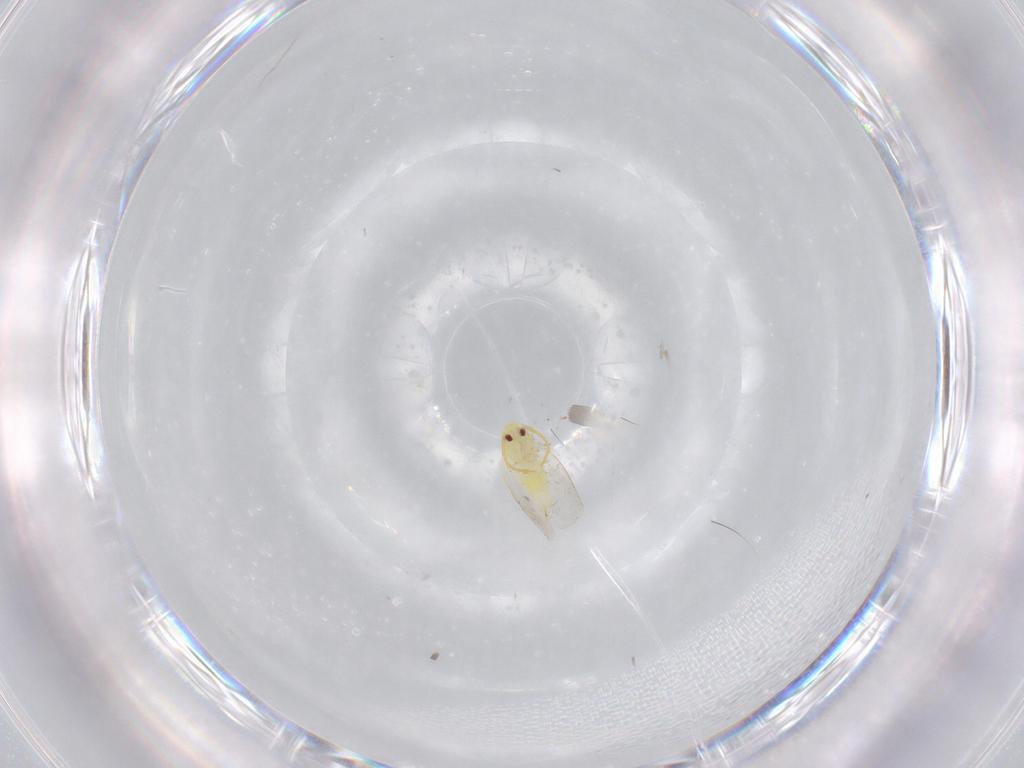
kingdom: Animalia
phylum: Arthropoda
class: Insecta
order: Hemiptera
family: Aleyrodidae
